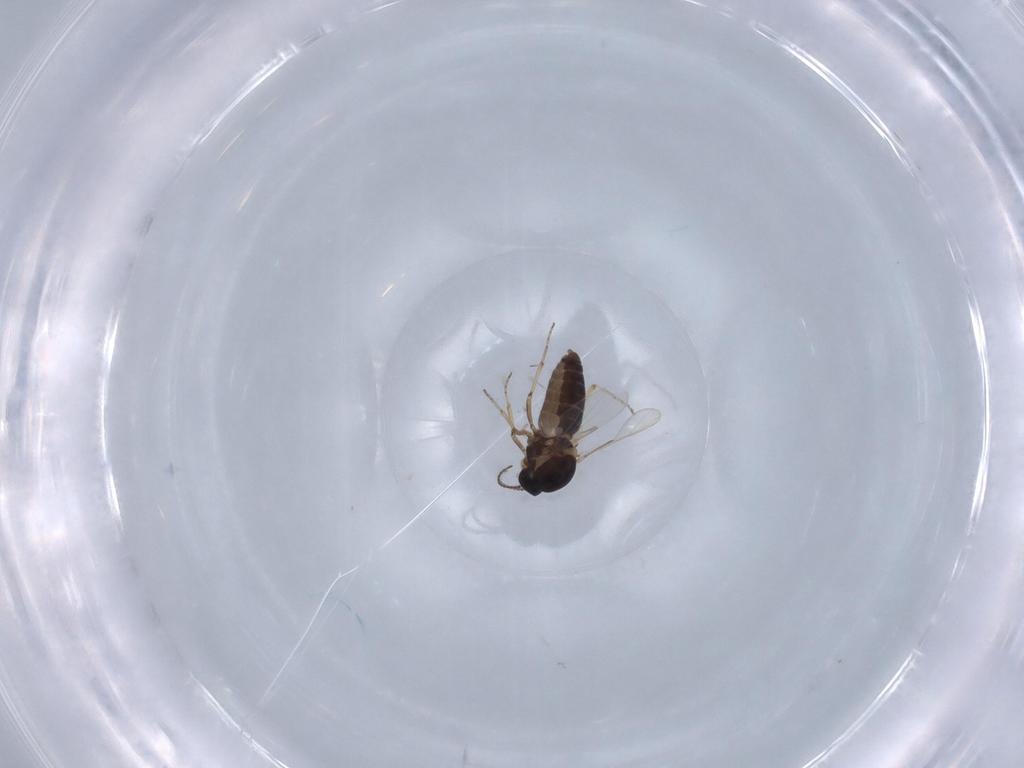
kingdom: Animalia
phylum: Arthropoda
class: Insecta
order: Diptera
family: Ceratopogonidae
